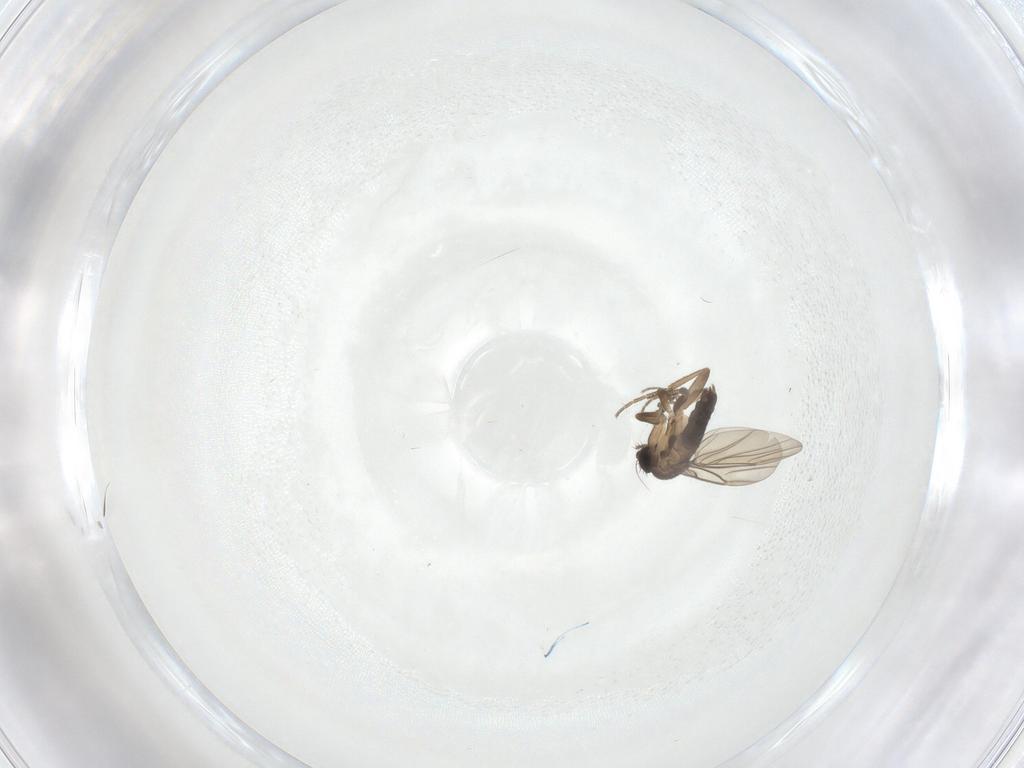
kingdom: Animalia
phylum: Arthropoda
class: Insecta
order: Diptera
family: Phoridae
